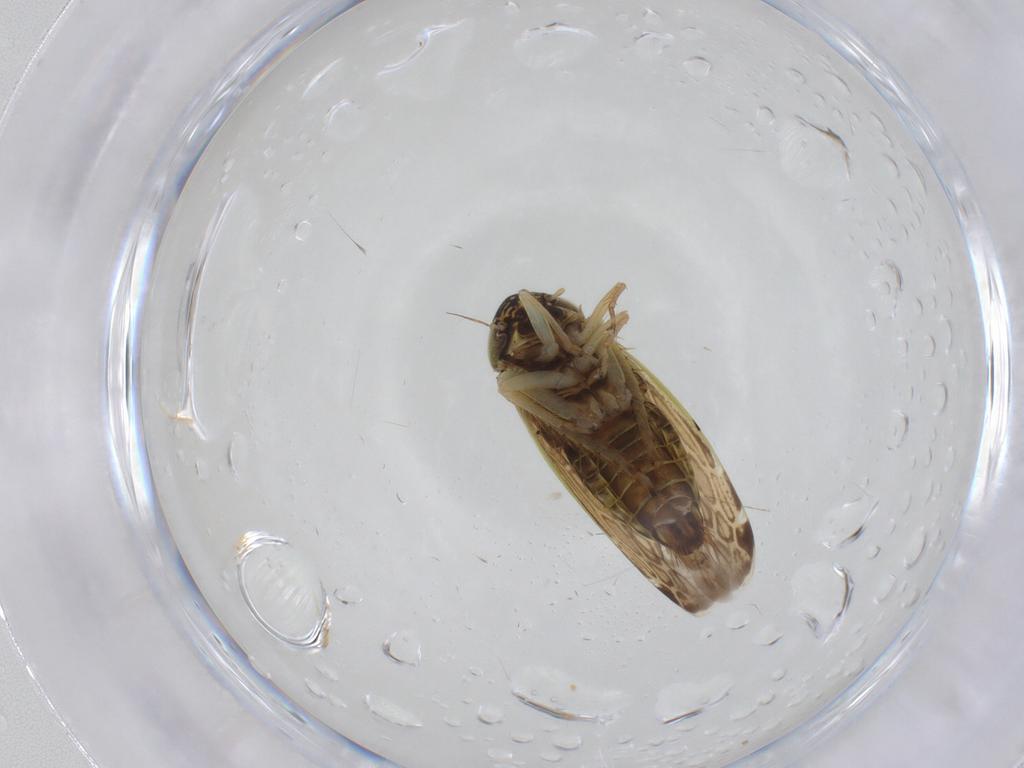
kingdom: Animalia
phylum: Arthropoda
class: Insecta
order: Hemiptera
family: Cicadellidae
